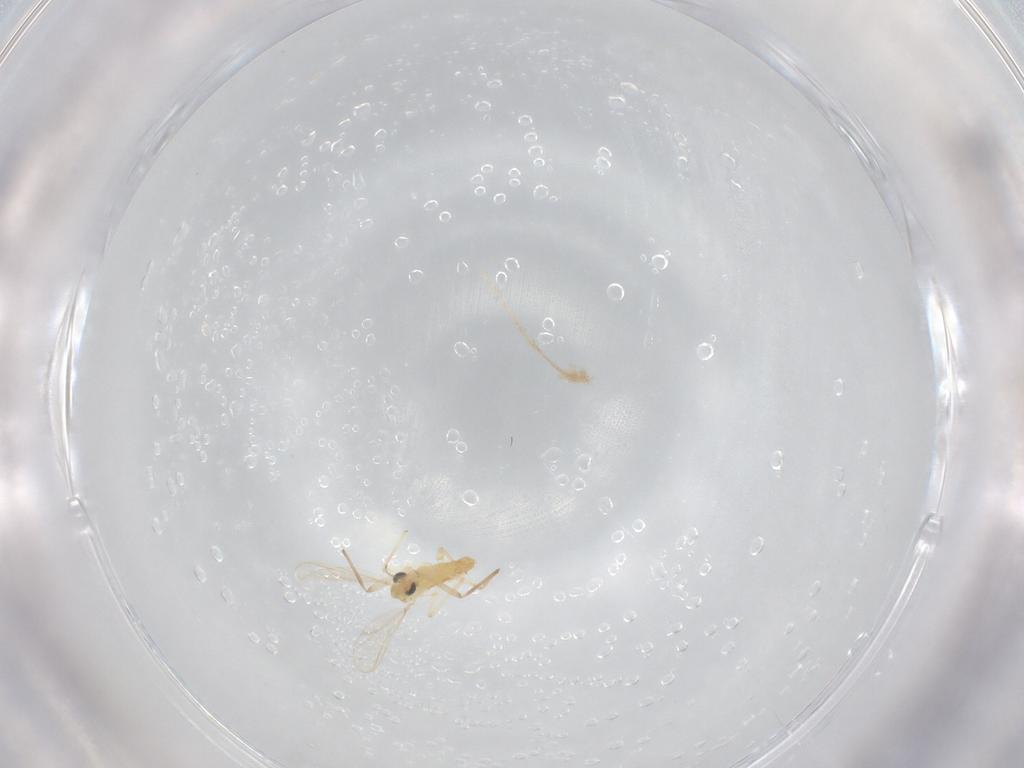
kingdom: Animalia
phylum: Arthropoda
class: Insecta
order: Diptera
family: Chironomidae
